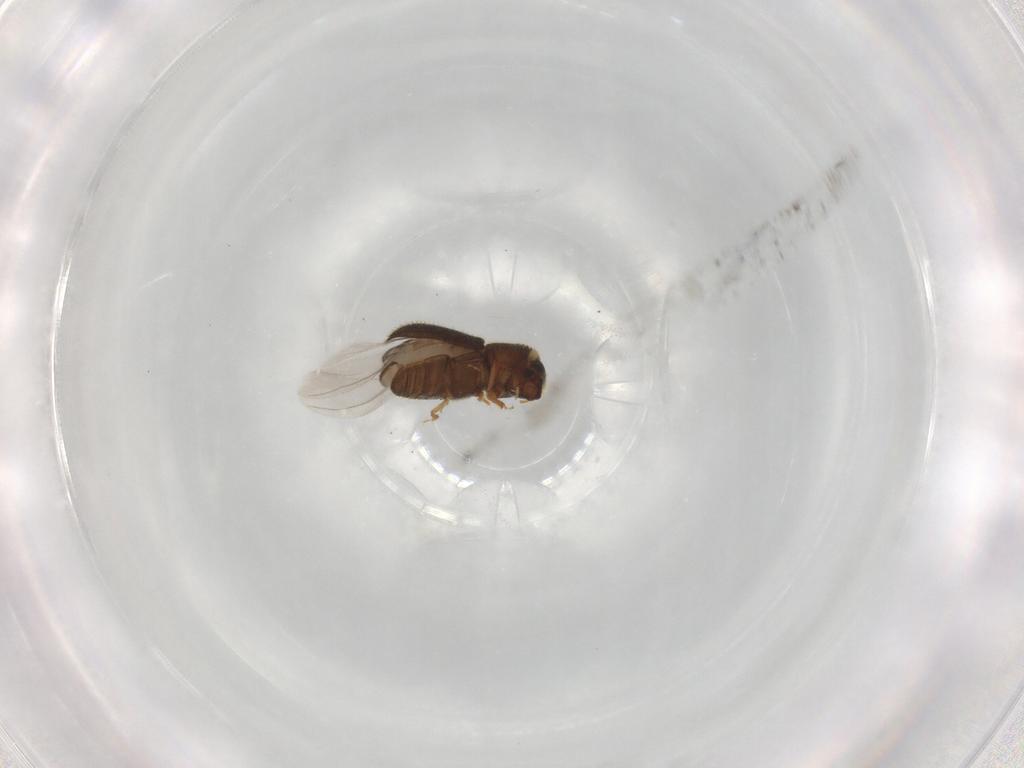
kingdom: Animalia
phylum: Arthropoda
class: Insecta
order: Coleoptera
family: Curculionidae
